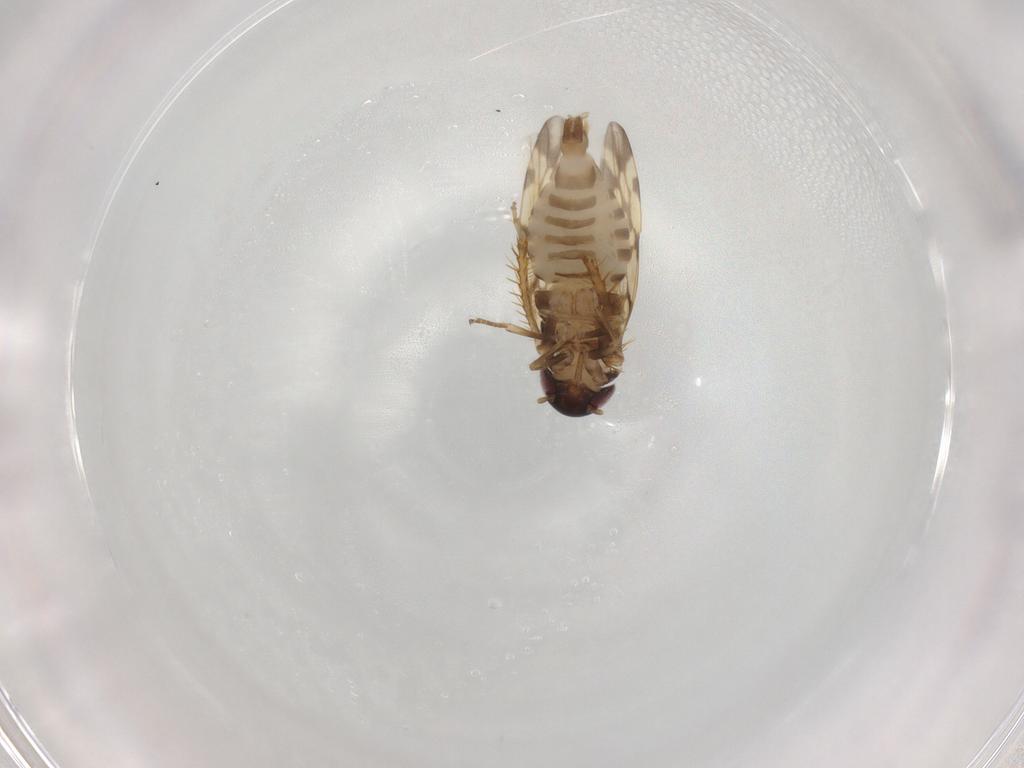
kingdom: Animalia
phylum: Arthropoda
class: Insecta
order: Hemiptera
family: Cicadellidae
